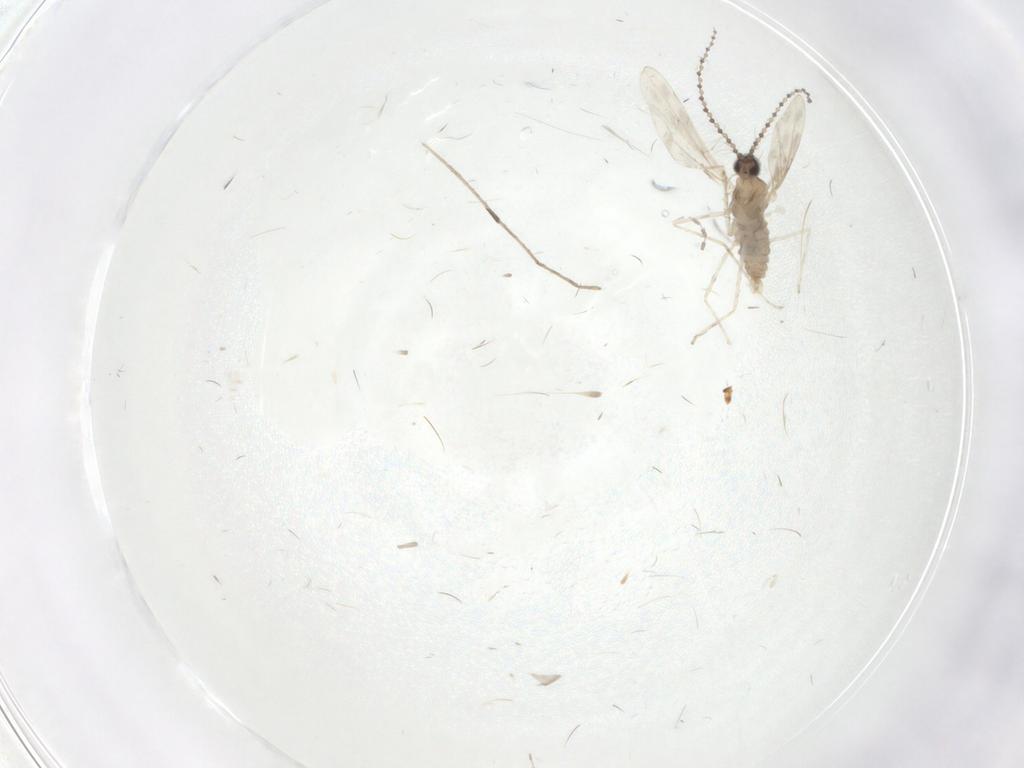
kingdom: Animalia
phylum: Arthropoda
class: Insecta
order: Diptera
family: Cecidomyiidae
